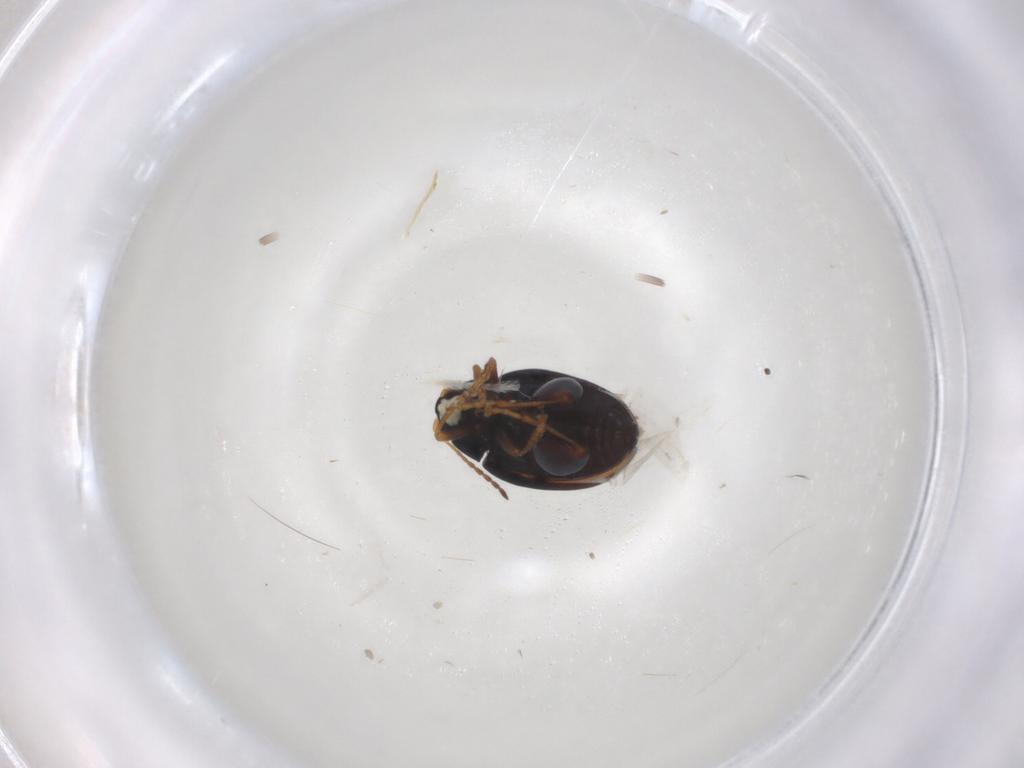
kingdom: Animalia
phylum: Arthropoda
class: Insecta
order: Coleoptera
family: Chrysomelidae
